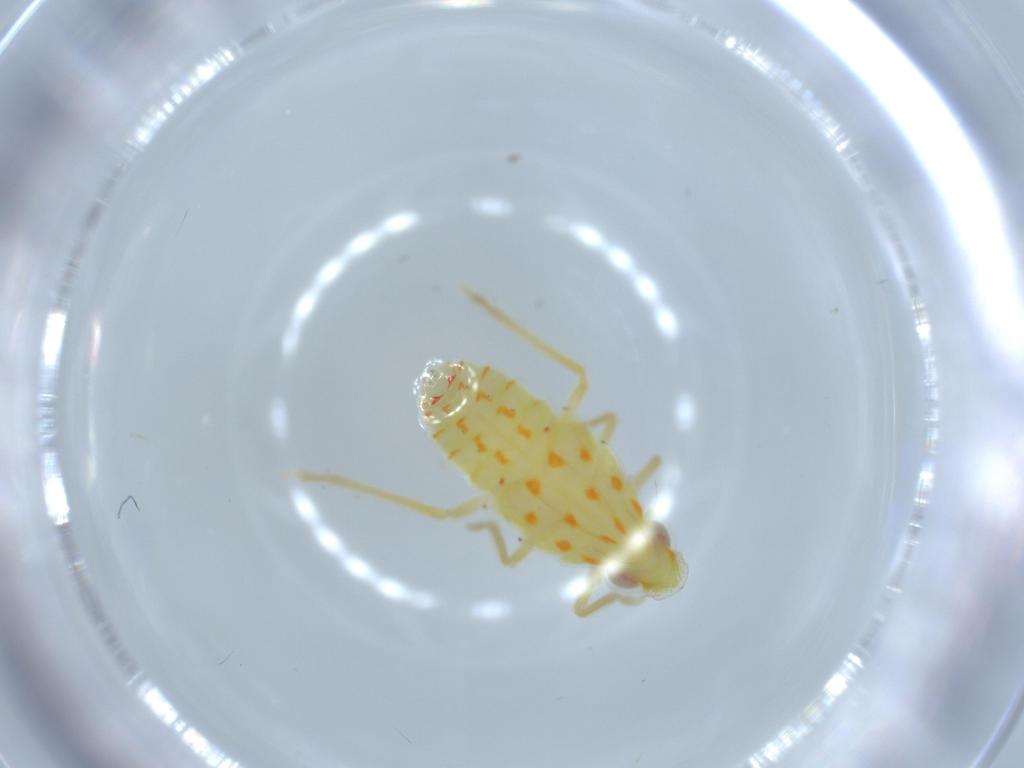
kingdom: Animalia
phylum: Arthropoda
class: Insecta
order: Hemiptera
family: Tropiduchidae
